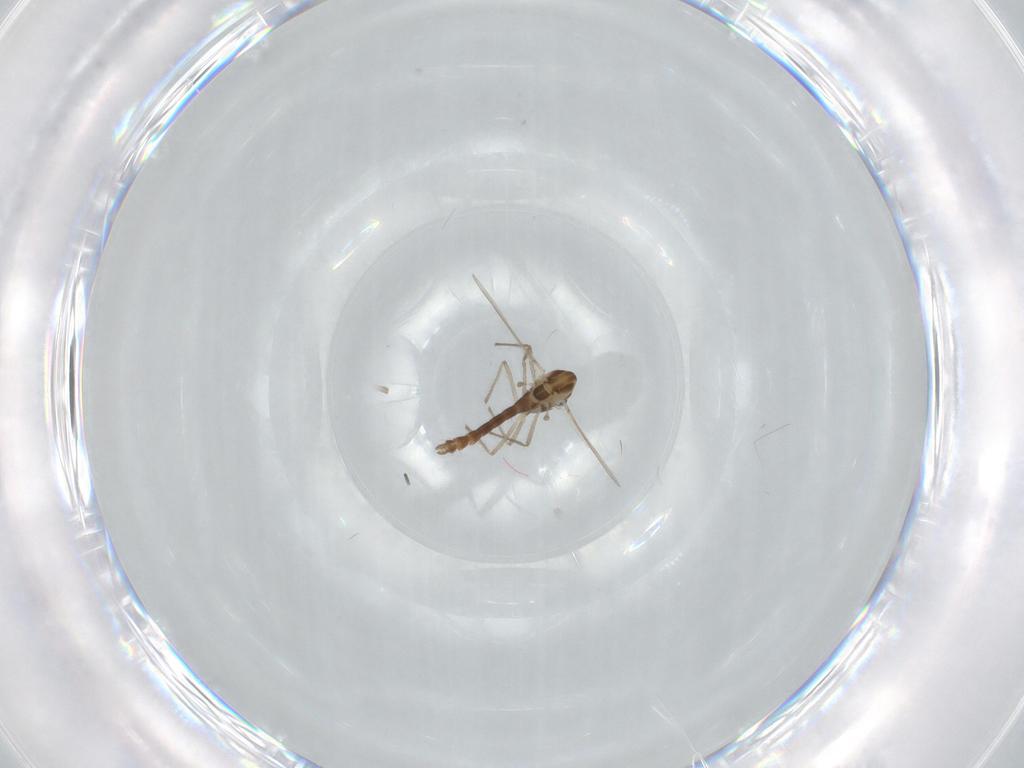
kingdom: Animalia
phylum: Arthropoda
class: Insecta
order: Diptera
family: Chironomidae
